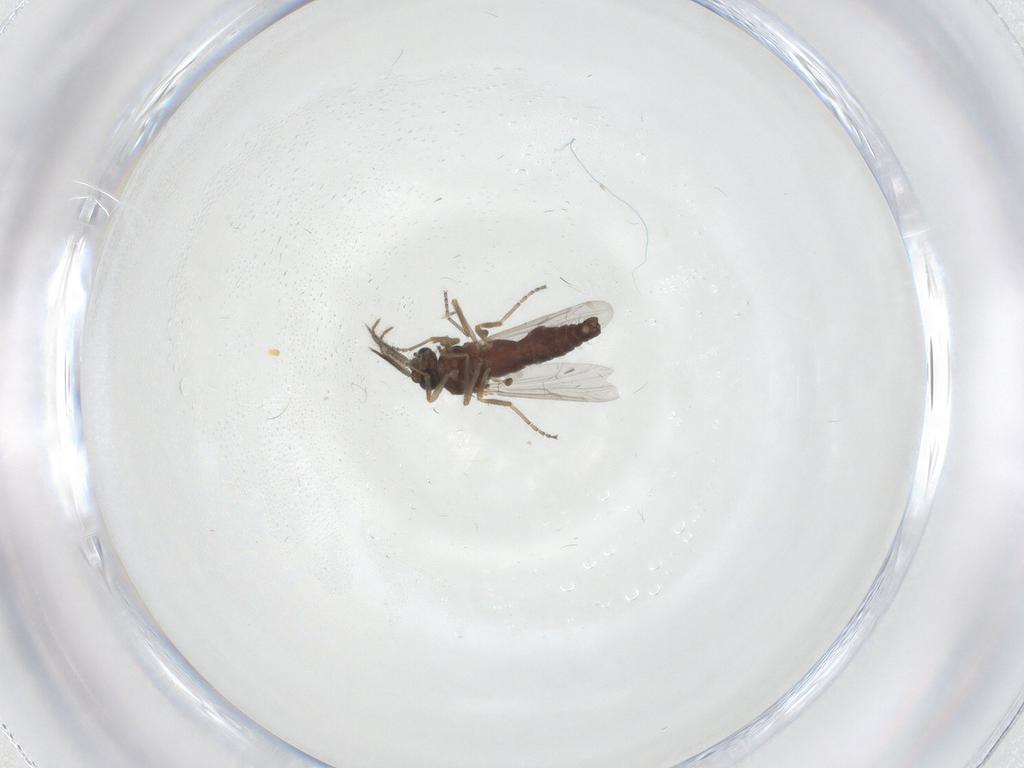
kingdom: Animalia
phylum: Arthropoda
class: Insecta
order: Diptera
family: Ceratopogonidae
